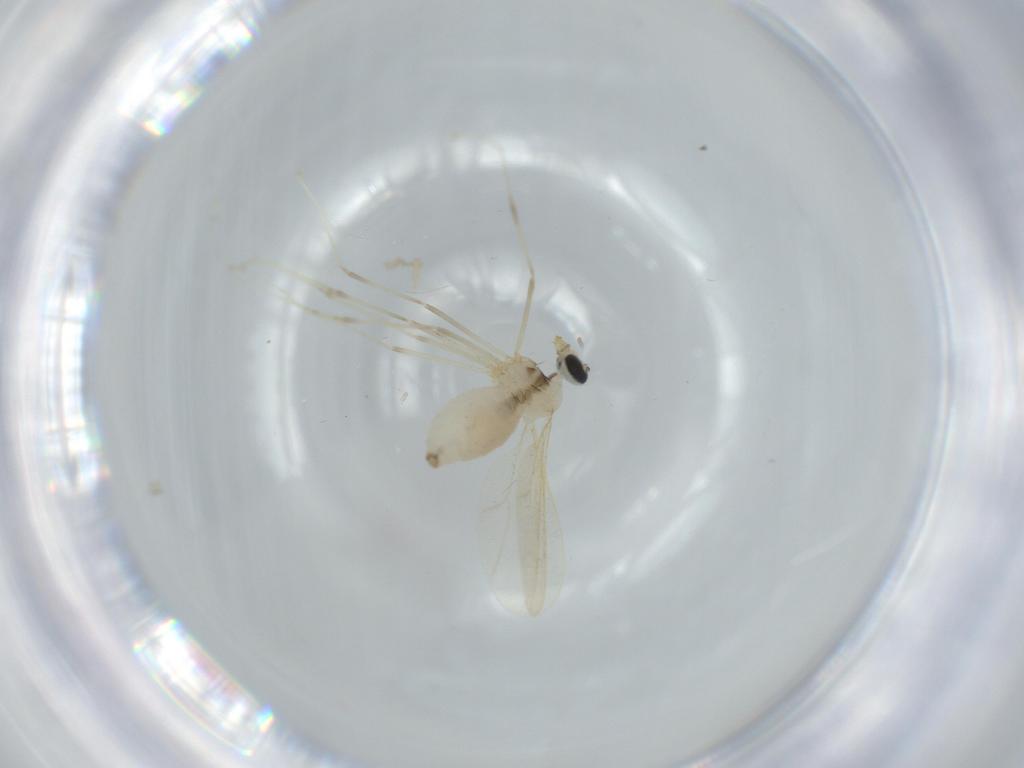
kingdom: Animalia
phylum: Arthropoda
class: Insecta
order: Diptera
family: Cecidomyiidae
